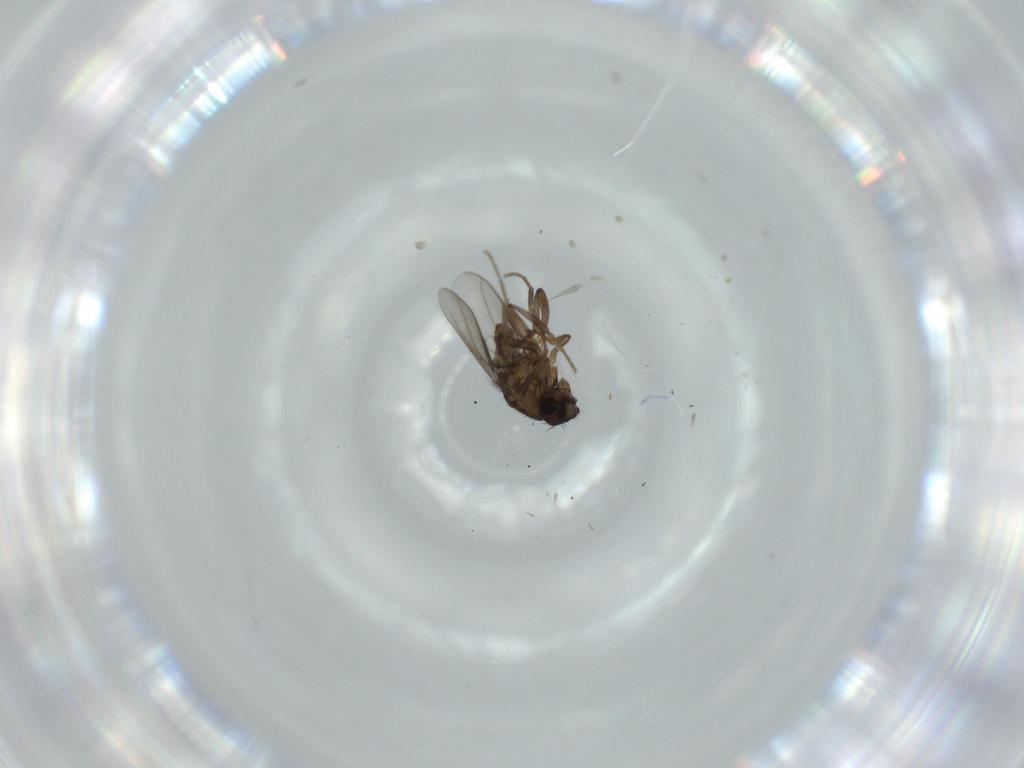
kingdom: Animalia
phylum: Arthropoda
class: Insecta
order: Diptera
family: Sphaeroceridae
